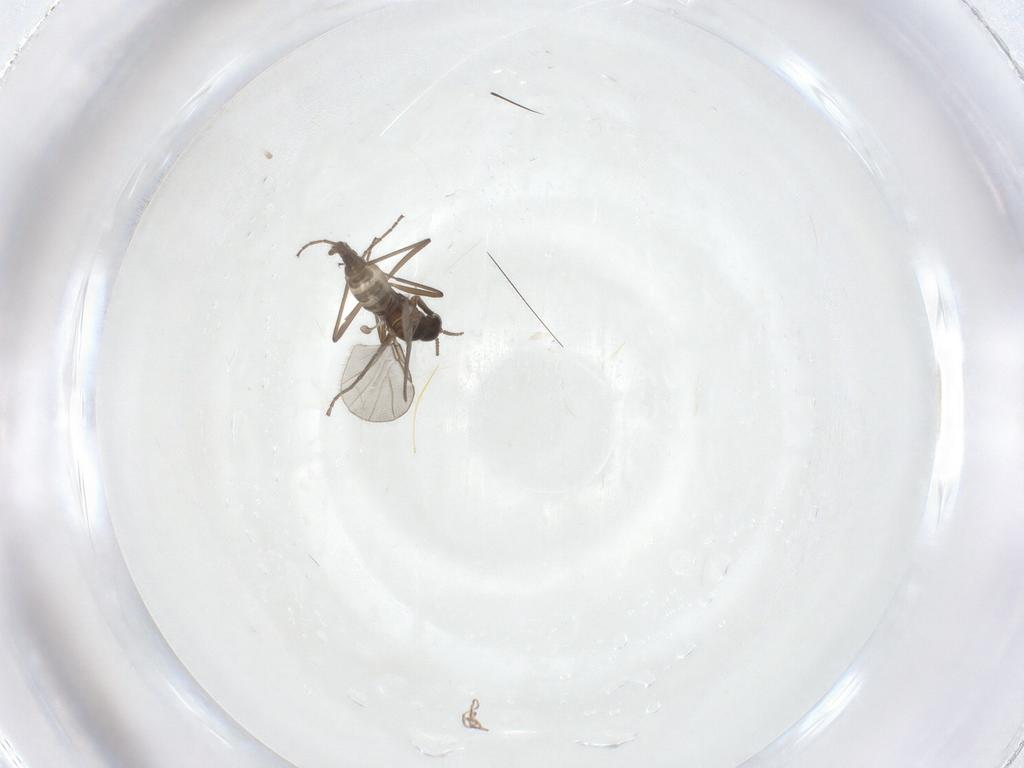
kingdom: Animalia
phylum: Arthropoda
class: Insecta
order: Diptera
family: Cecidomyiidae
